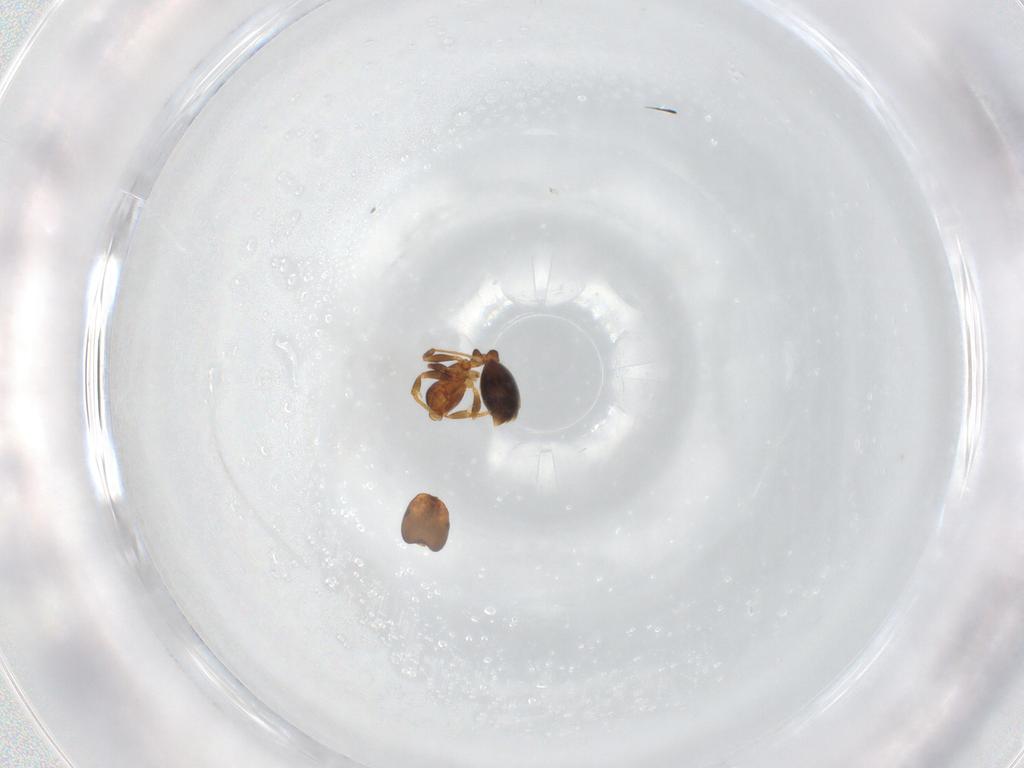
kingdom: Animalia
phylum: Arthropoda
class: Insecta
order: Hymenoptera
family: Formicidae
